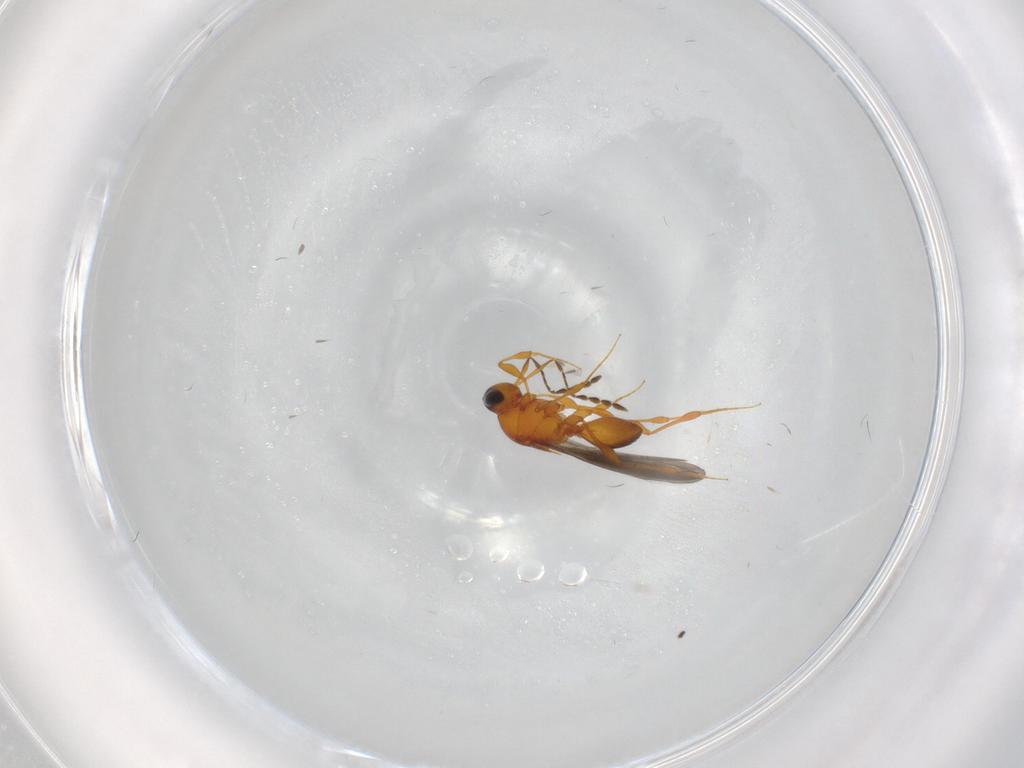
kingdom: Animalia
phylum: Arthropoda
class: Insecta
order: Hymenoptera
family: Platygastridae
